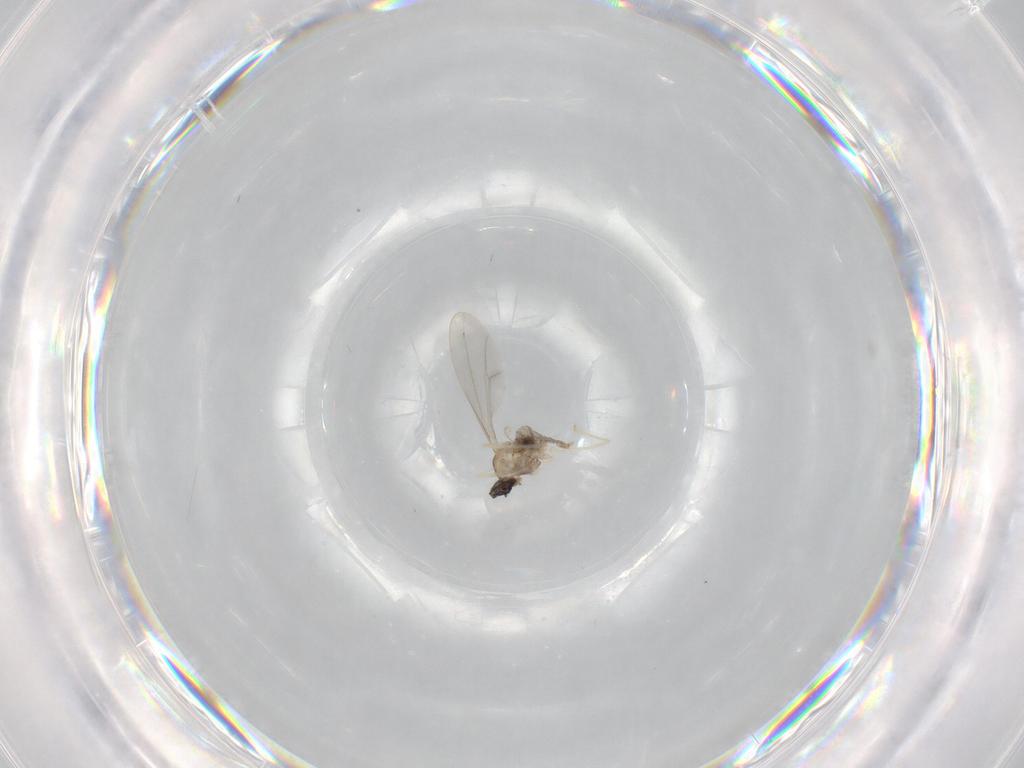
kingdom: Animalia
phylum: Arthropoda
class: Insecta
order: Diptera
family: Cecidomyiidae
